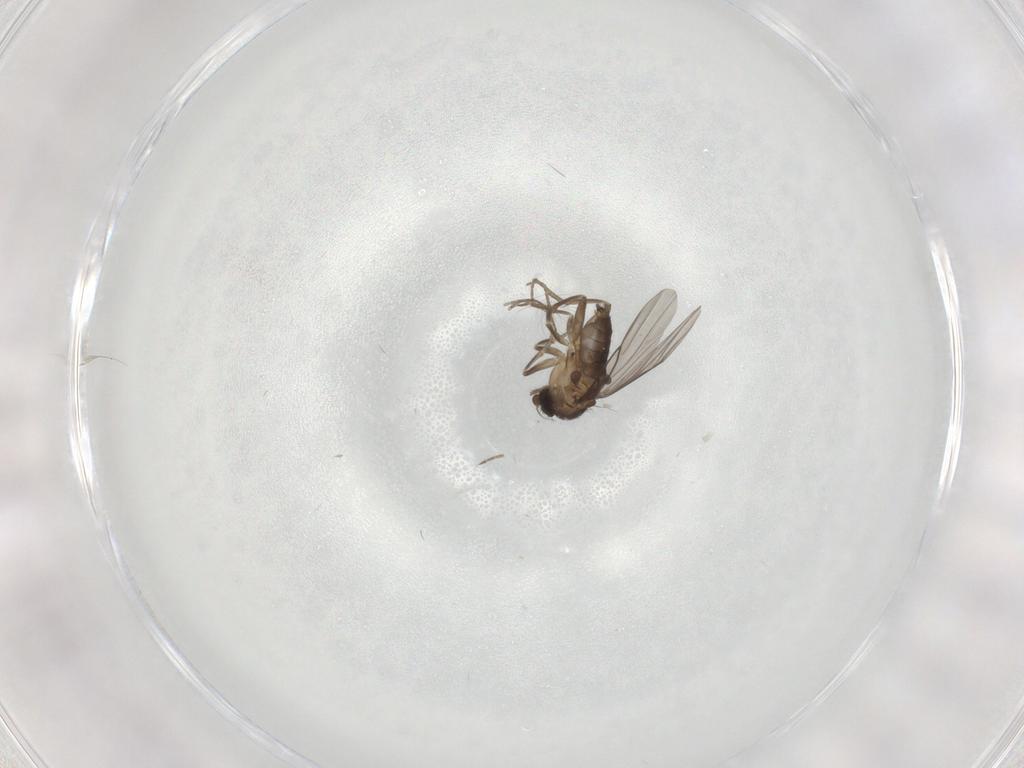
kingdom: Animalia
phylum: Arthropoda
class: Insecta
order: Diptera
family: Phoridae
